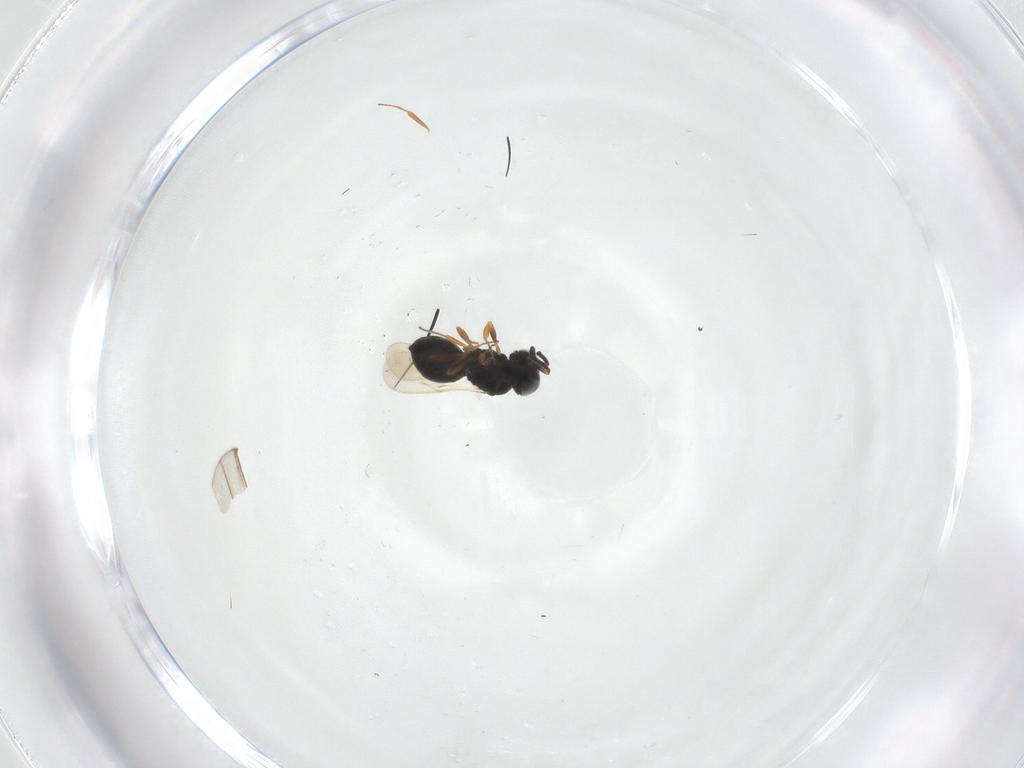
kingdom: Animalia
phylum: Arthropoda
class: Insecta
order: Hymenoptera
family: Scelionidae
